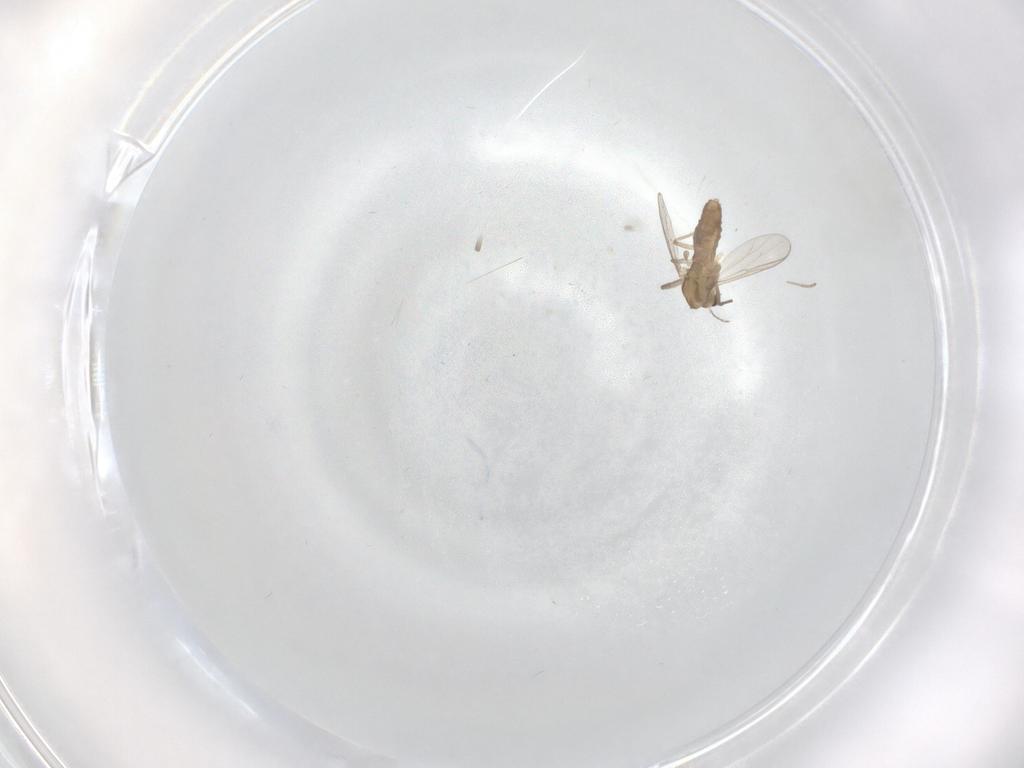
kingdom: Animalia
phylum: Arthropoda
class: Insecta
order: Diptera
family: Chironomidae
